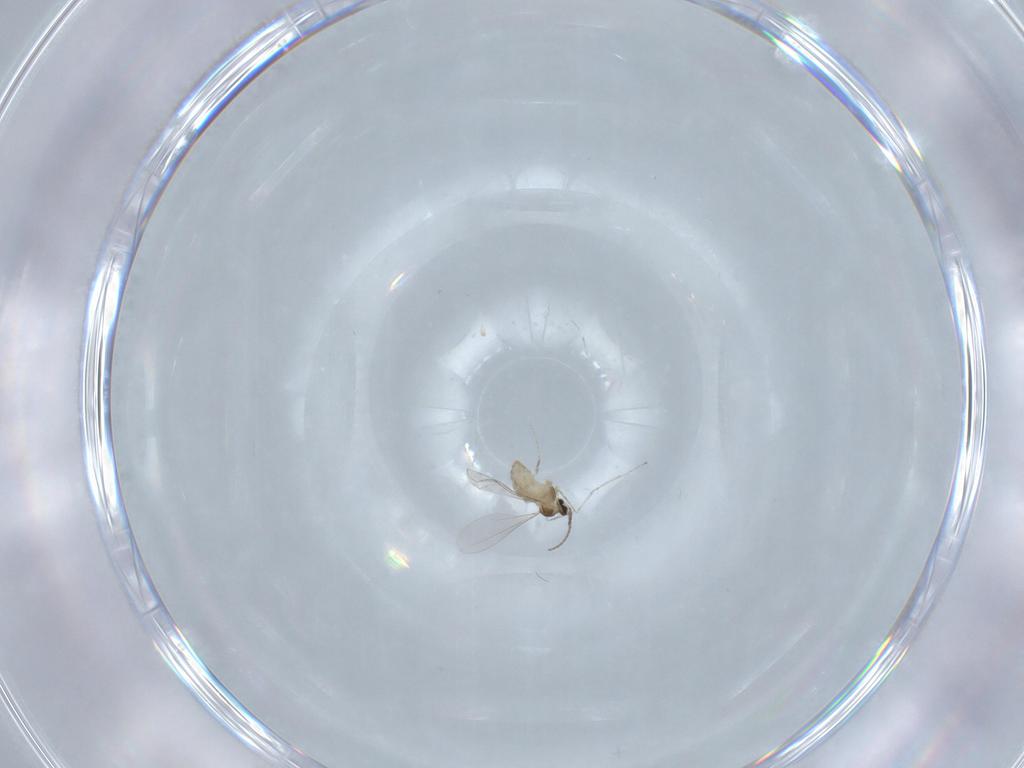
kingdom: Animalia
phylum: Arthropoda
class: Insecta
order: Diptera
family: Cecidomyiidae
